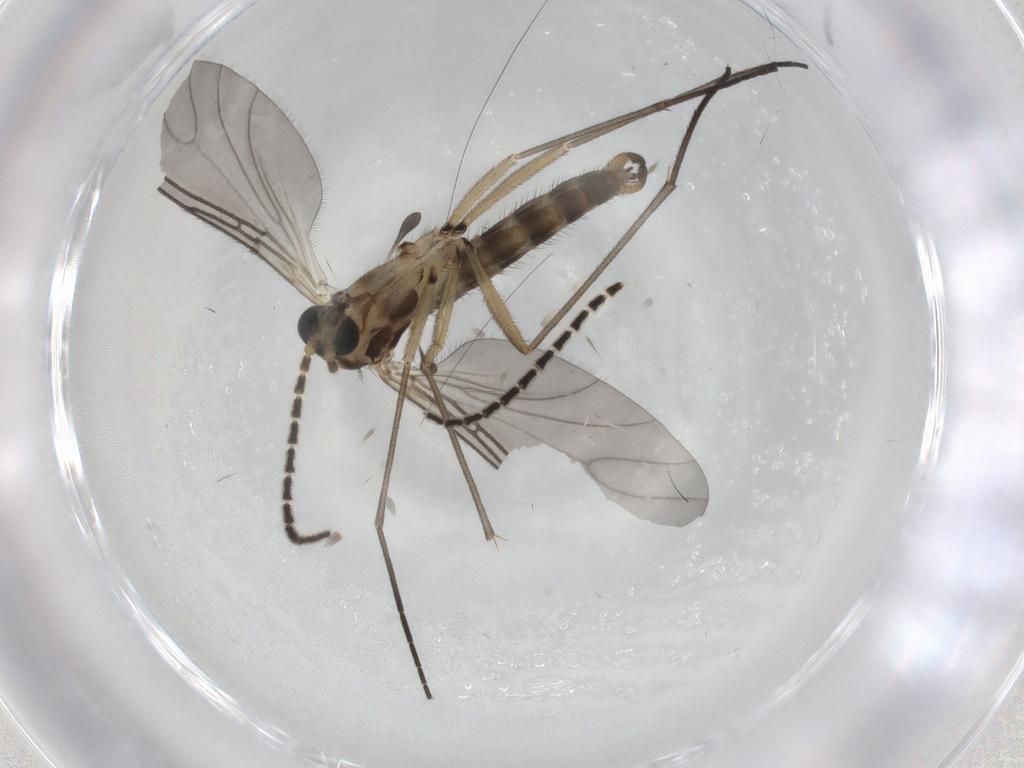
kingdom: Animalia
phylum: Arthropoda
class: Insecta
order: Diptera
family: Sciaridae
